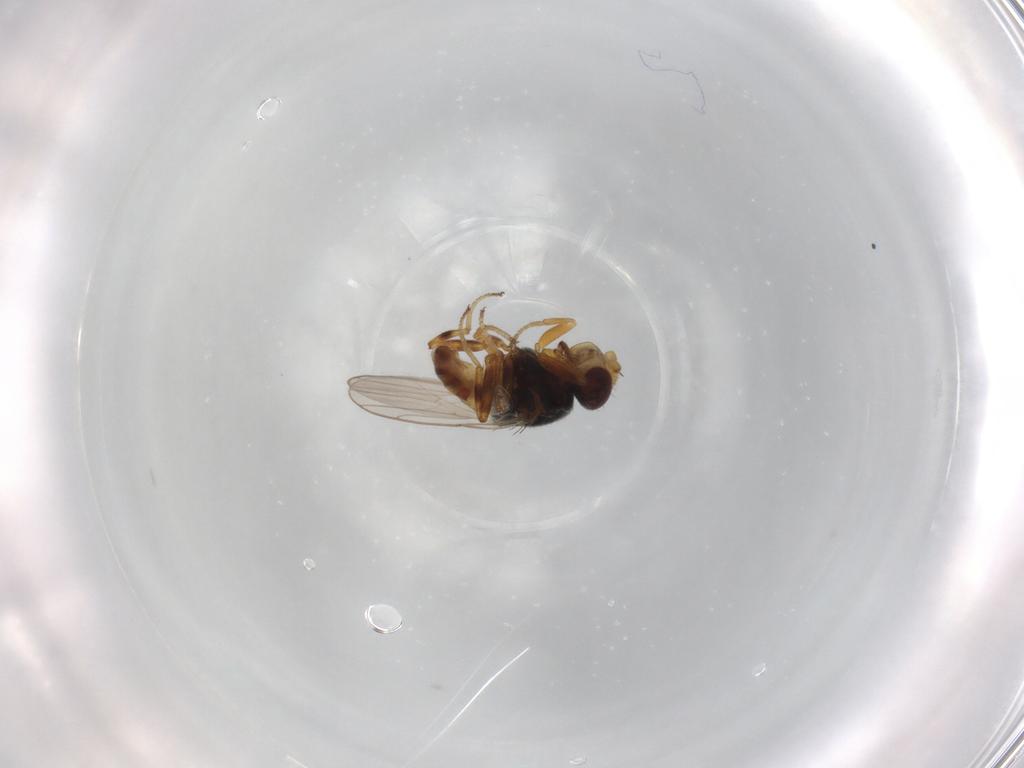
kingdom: Animalia
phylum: Arthropoda
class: Insecta
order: Diptera
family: Chloropidae
